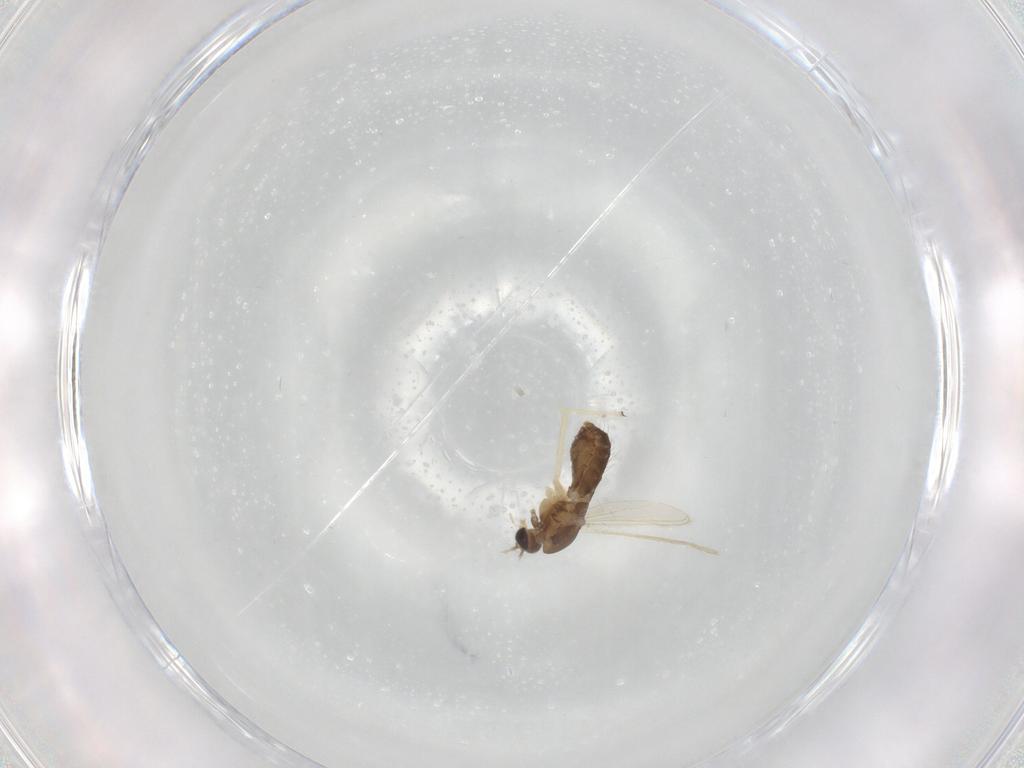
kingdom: Animalia
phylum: Arthropoda
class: Insecta
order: Diptera
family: Chironomidae
